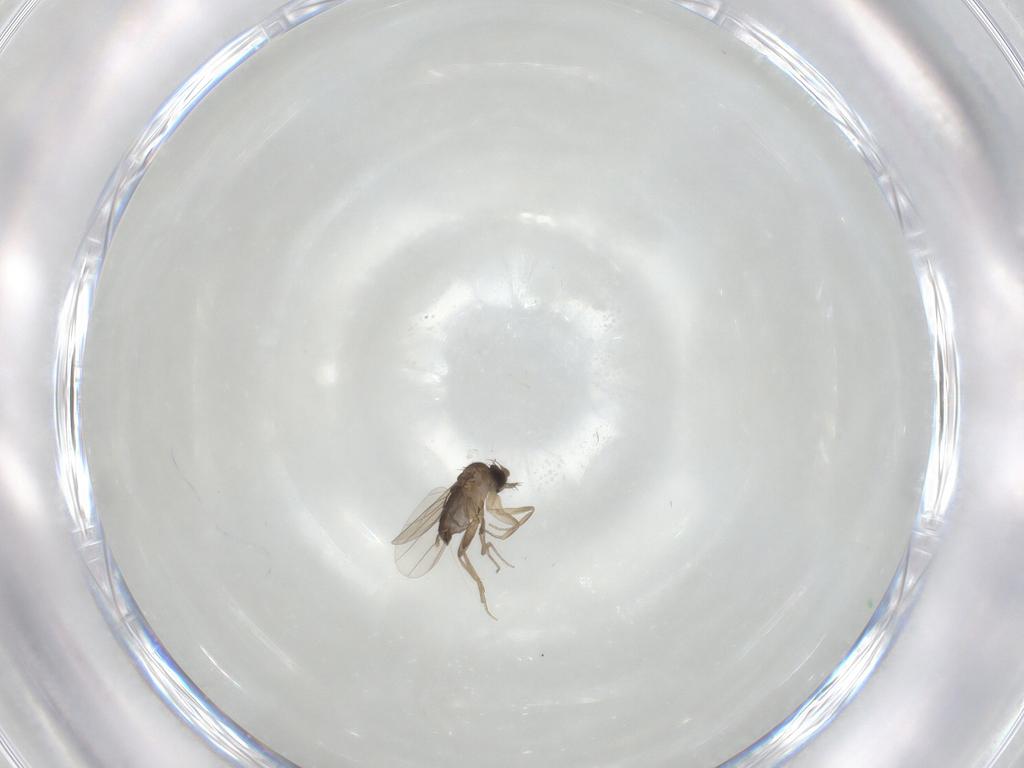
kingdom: Animalia
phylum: Arthropoda
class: Insecta
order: Diptera
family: Phoridae
